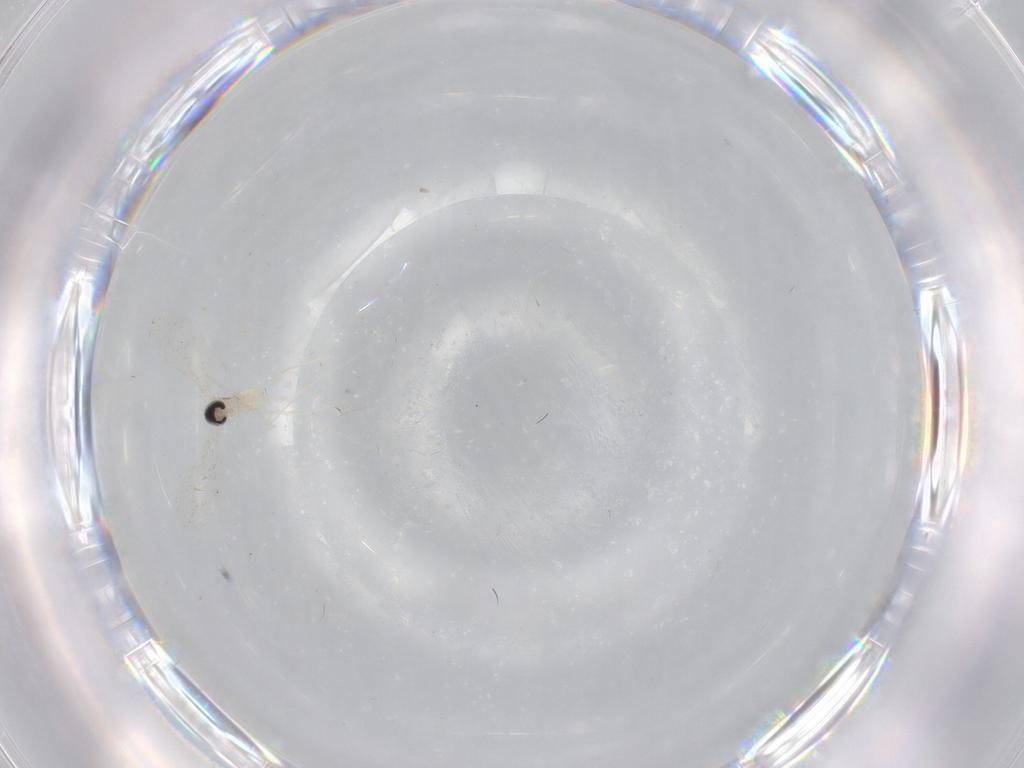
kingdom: Animalia
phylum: Arthropoda
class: Insecta
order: Diptera
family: Cecidomyiidae
